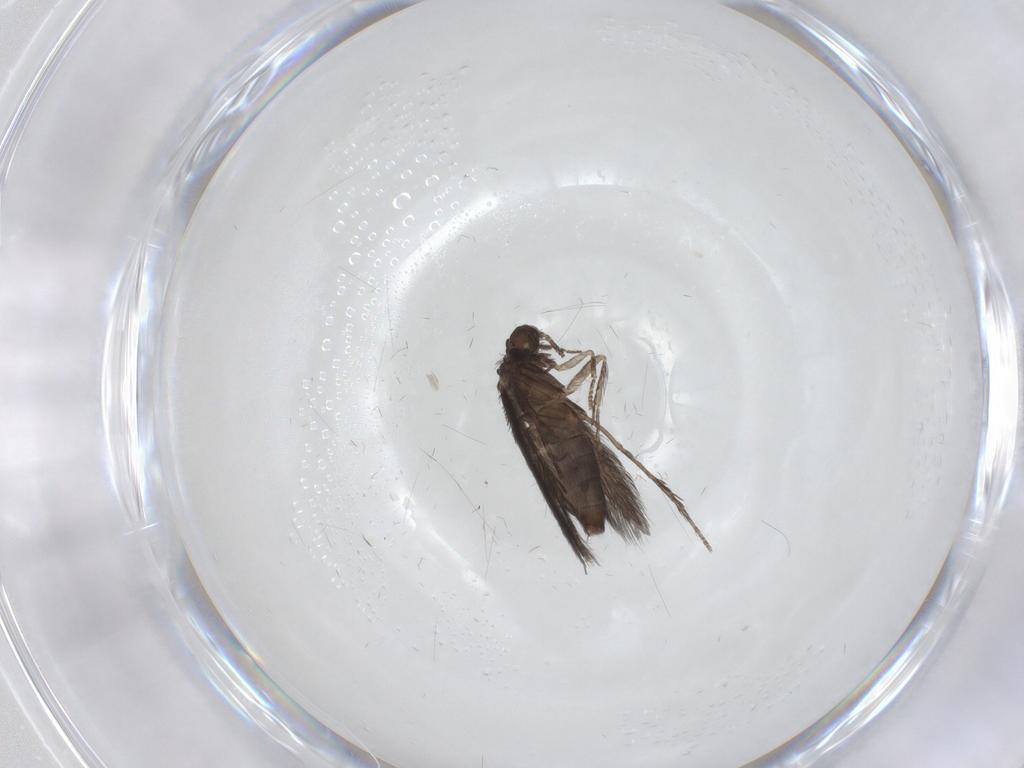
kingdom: Animalia
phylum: Arthropoda
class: Insecta
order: Trichoptera
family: Hydroptilidae
